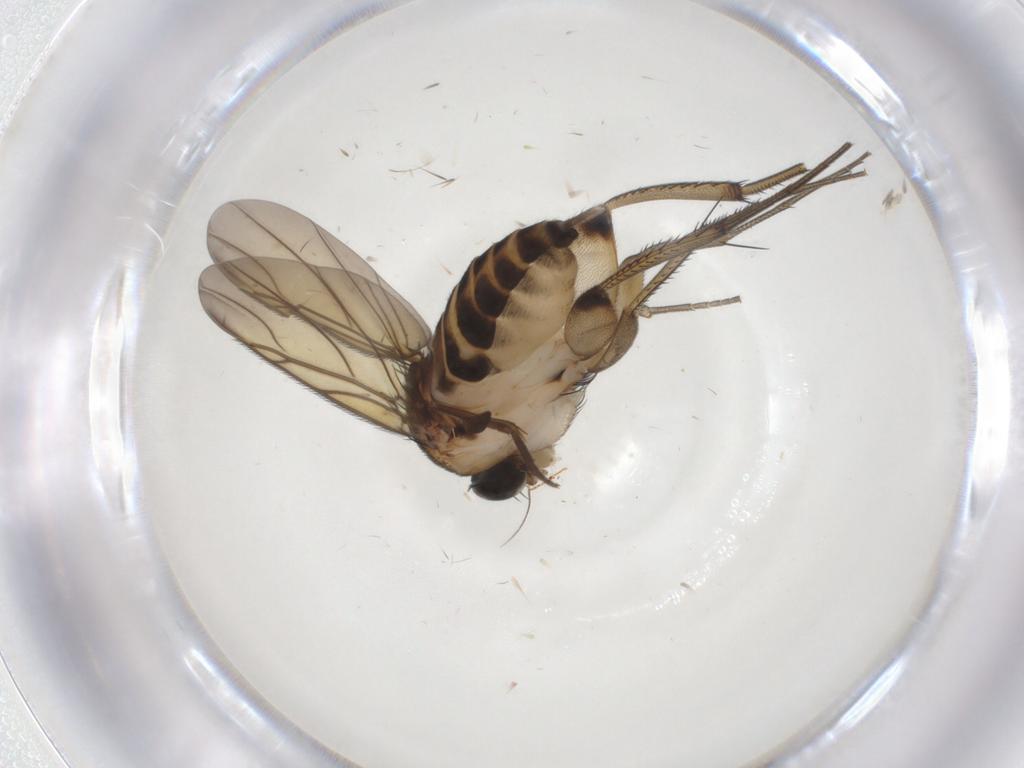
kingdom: Animalia
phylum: Arthropoda
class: Insecta
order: Diptera
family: Phoridae
